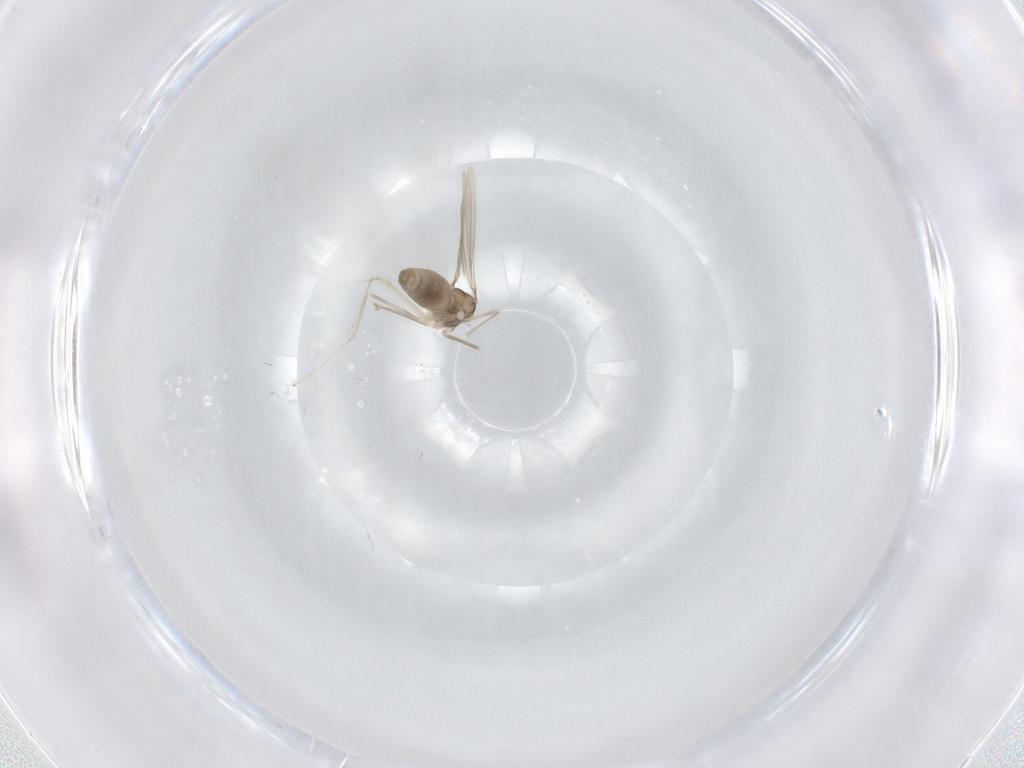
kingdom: Animalia
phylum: Arthropoda
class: Insecta
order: Diptera
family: Cecidomyiidae
